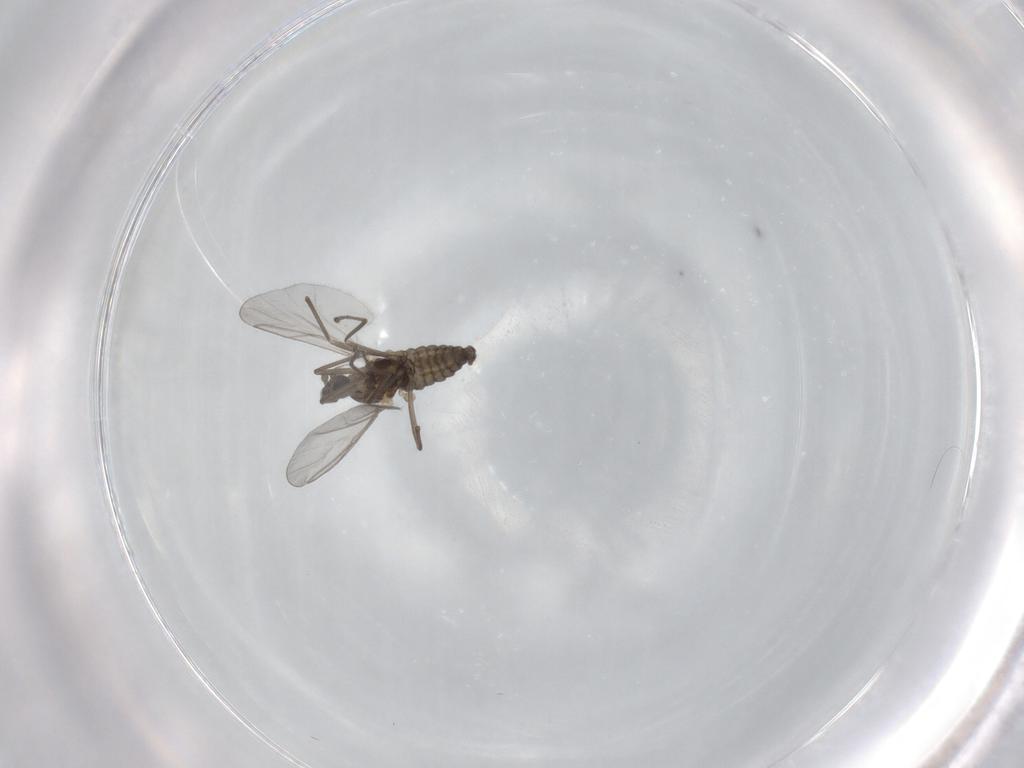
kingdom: Animalia
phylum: Arthropoda
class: Insecta
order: Diptera
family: Cecidomyiidae
